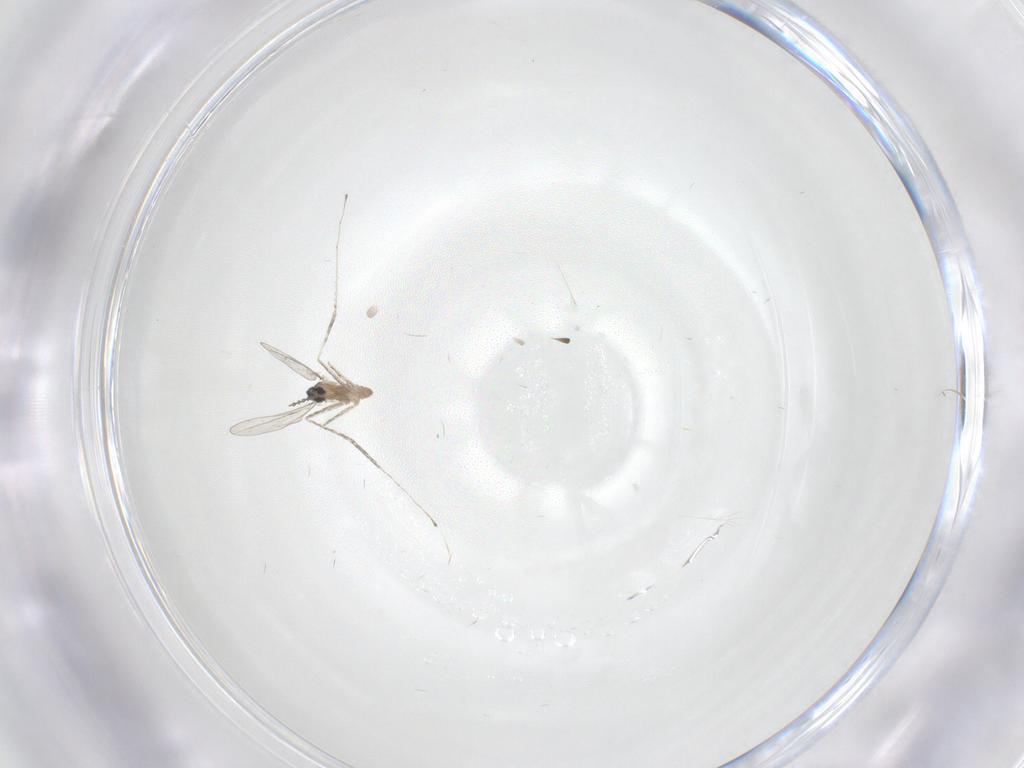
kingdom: Animalia
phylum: Arthropoda
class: Insecta
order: Diptera
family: Cecidomyiidae
